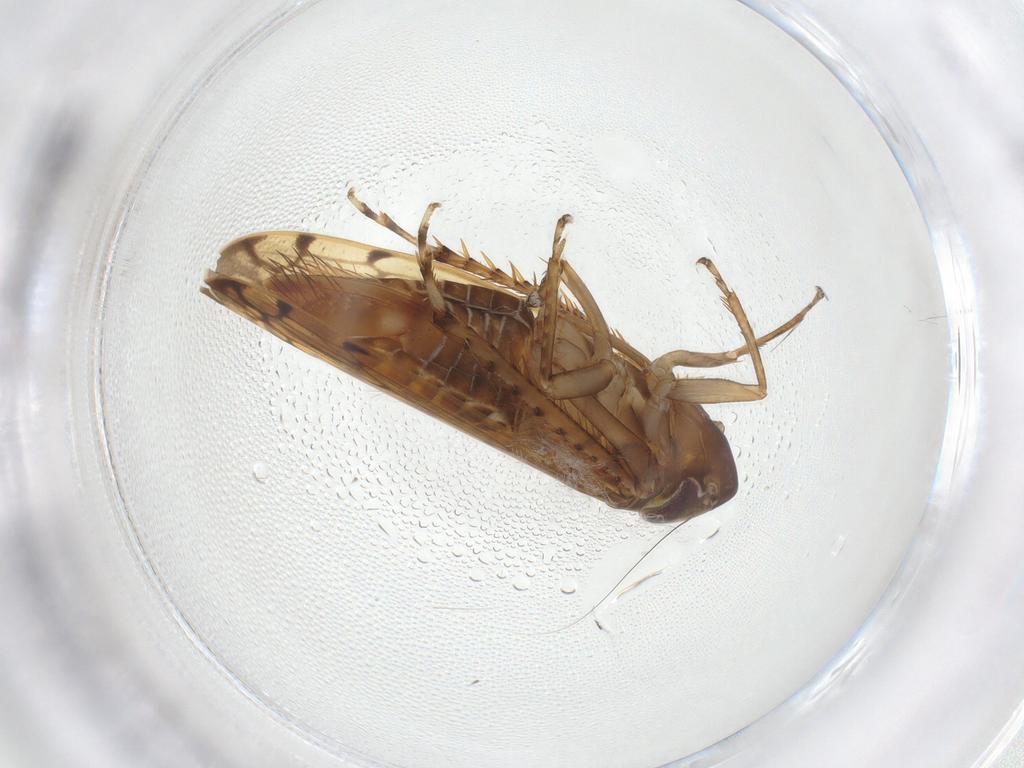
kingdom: Animalia
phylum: Arthropoda
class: Insecta
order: Hemiptera
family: Cicadellidae
